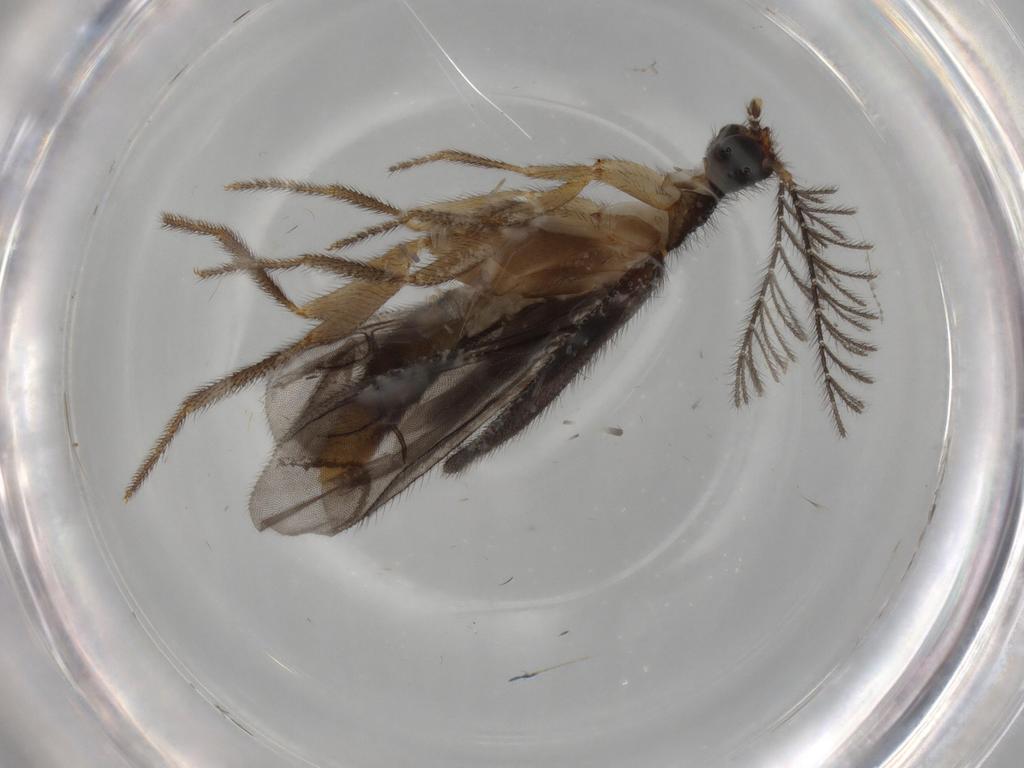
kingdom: Animalia
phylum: Arthropoda
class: Insecta
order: Coleoptera
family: Phengodidae
